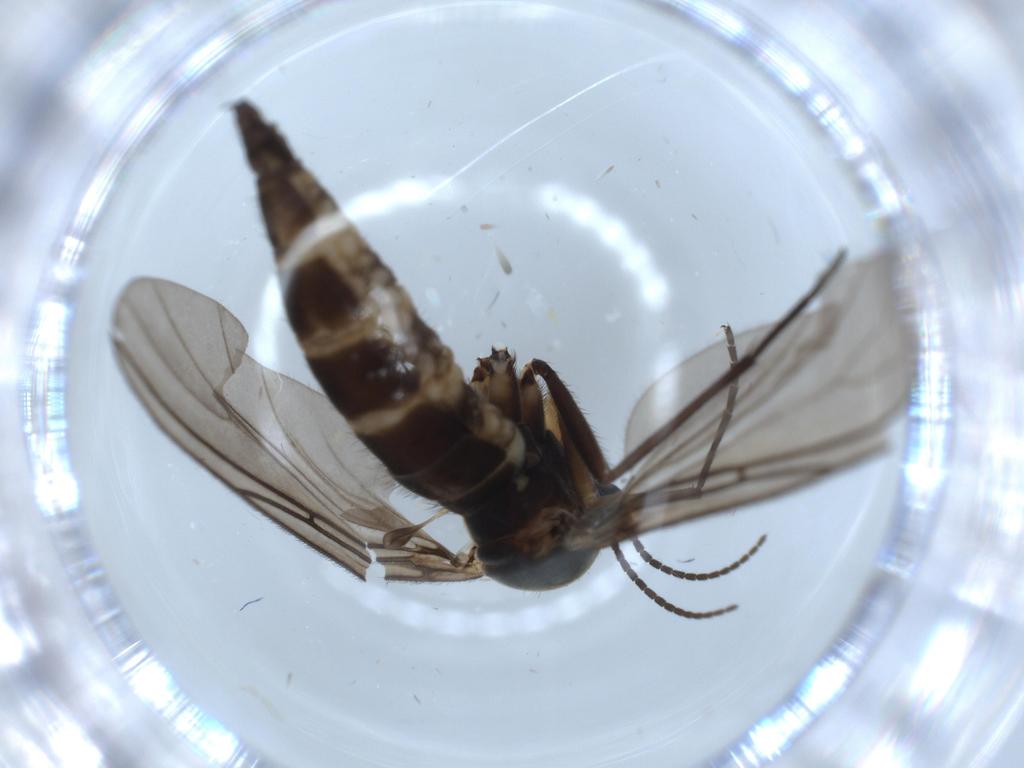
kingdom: Animalia
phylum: Arthropoda
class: Insecta
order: Diptera
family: Sciaridae
